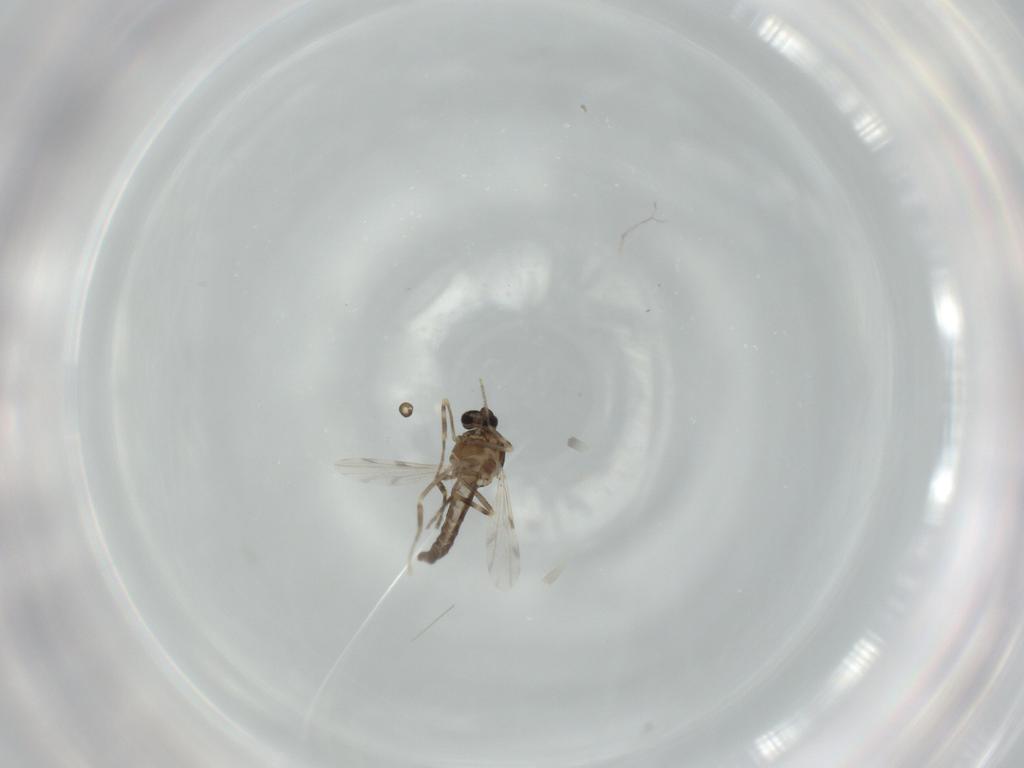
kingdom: Animalia
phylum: Arthropoda
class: Insecta
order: Diptera
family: Ceratopogonidae
